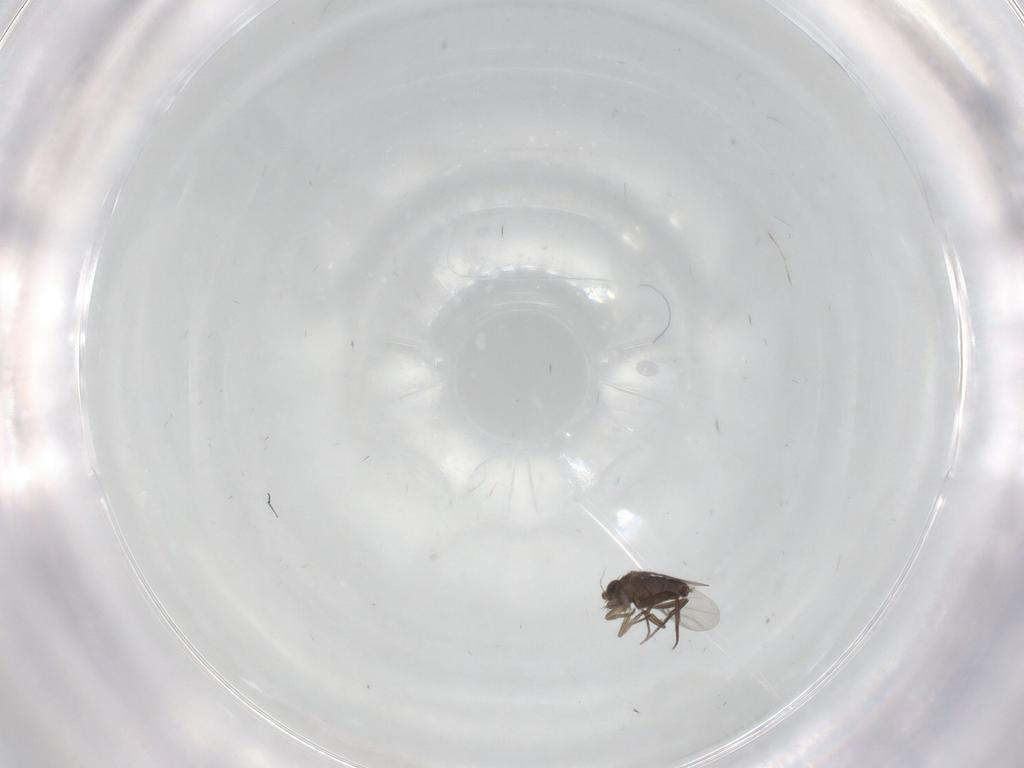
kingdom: Animalia
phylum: Arthropoda
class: Insecta
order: Diptera
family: Phoridae
